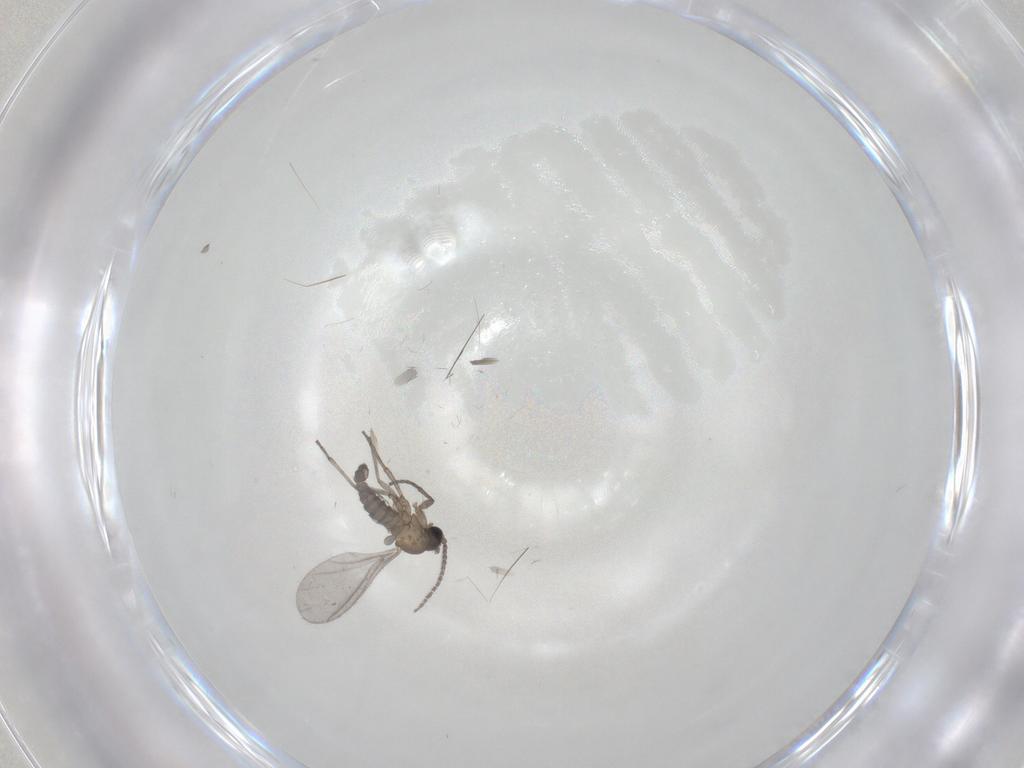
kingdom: Animalia
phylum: Arthropoda
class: Insecta
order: Diptera
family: Sciaridae
